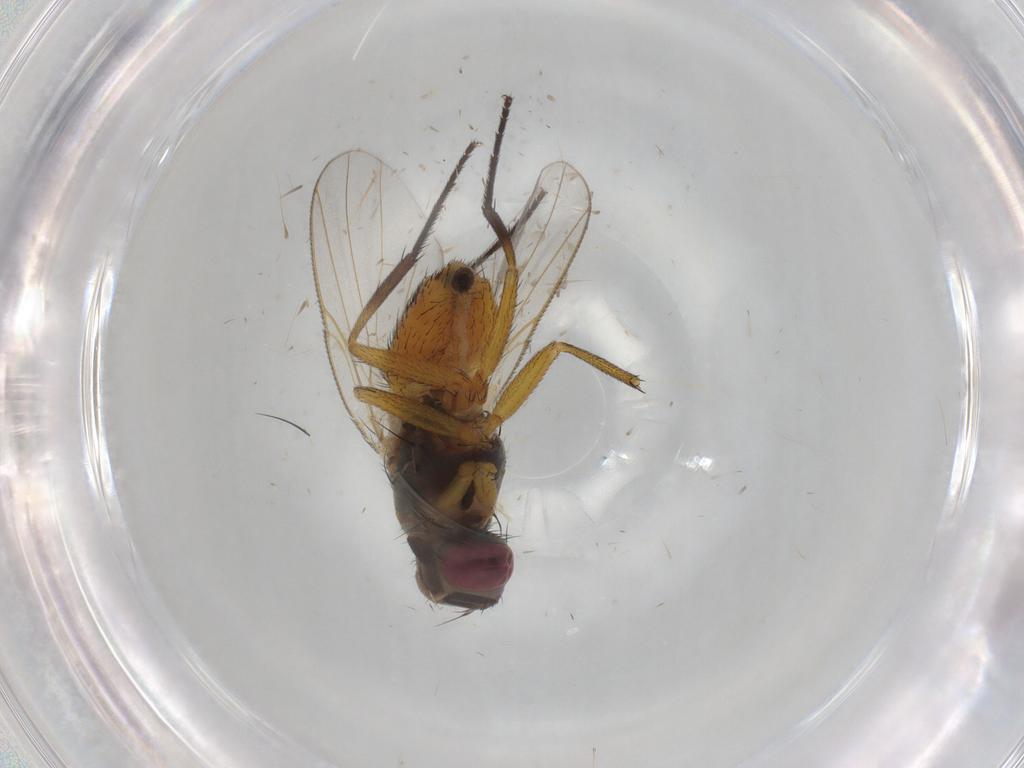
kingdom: Animalia
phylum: Arthropoda
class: Insecta
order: Diptera
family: Muscidae
